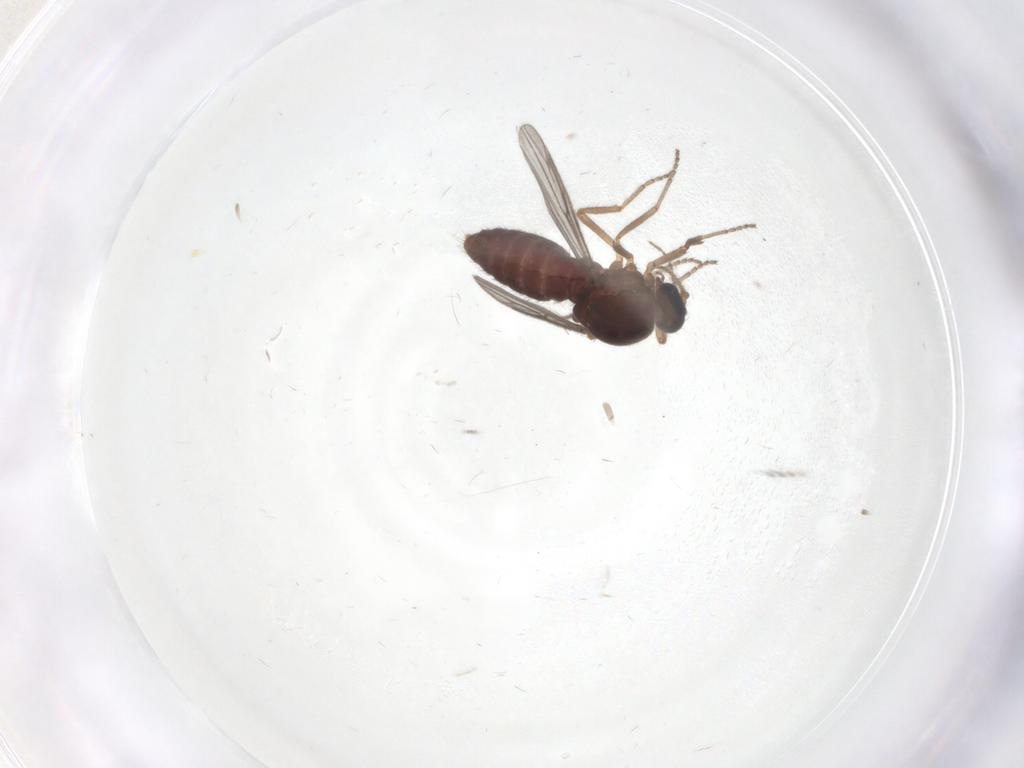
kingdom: Animalia
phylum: Arthropoda
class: Insecta
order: Diptera
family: Ceratopogonidae
